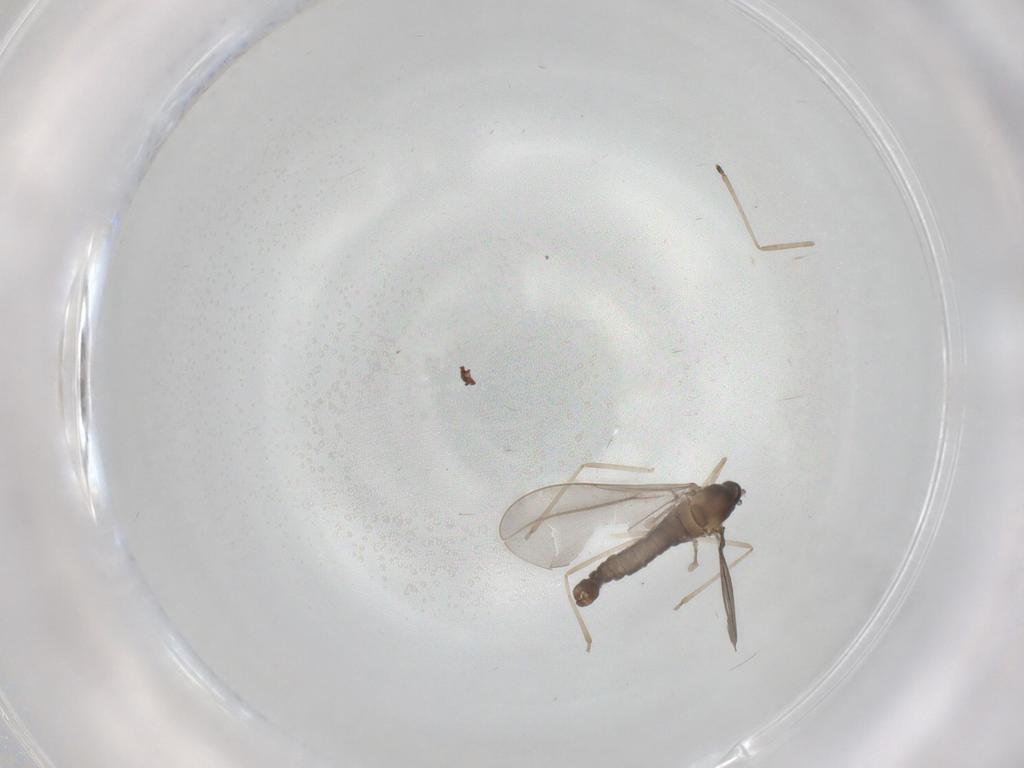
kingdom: Animalia
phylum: Arthropoda
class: Insecta
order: Diptera
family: Cecidomyiidae
